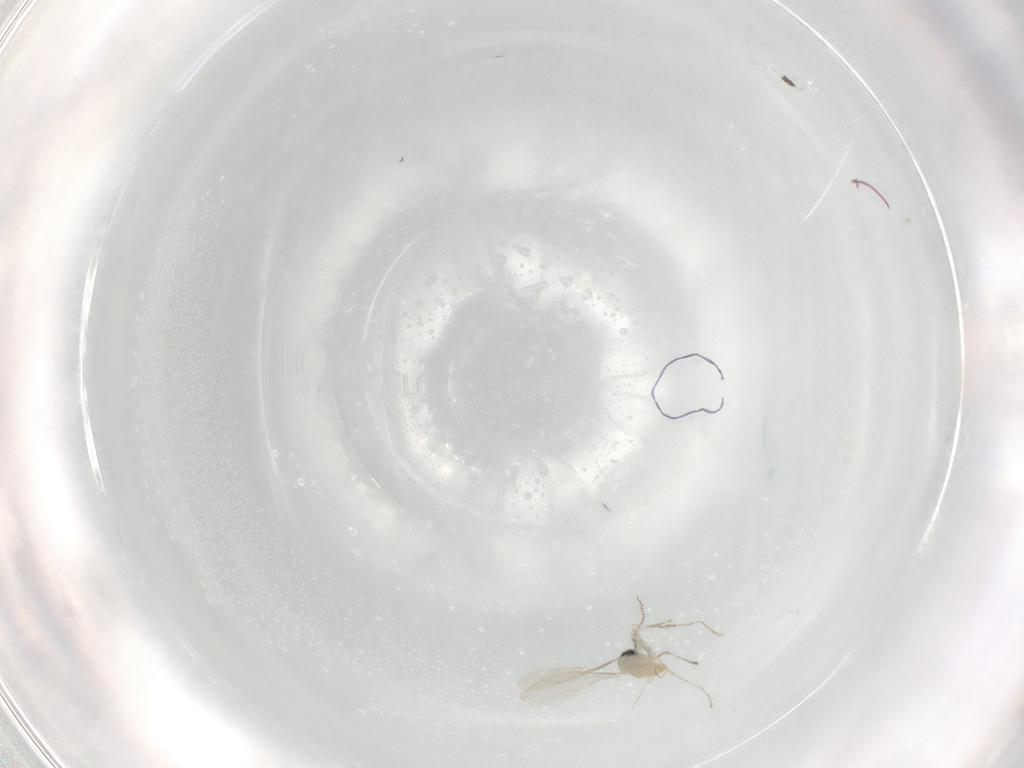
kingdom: Animalia
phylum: Arthropoda
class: Insecta
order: Diptera
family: Cecidomyiidae
